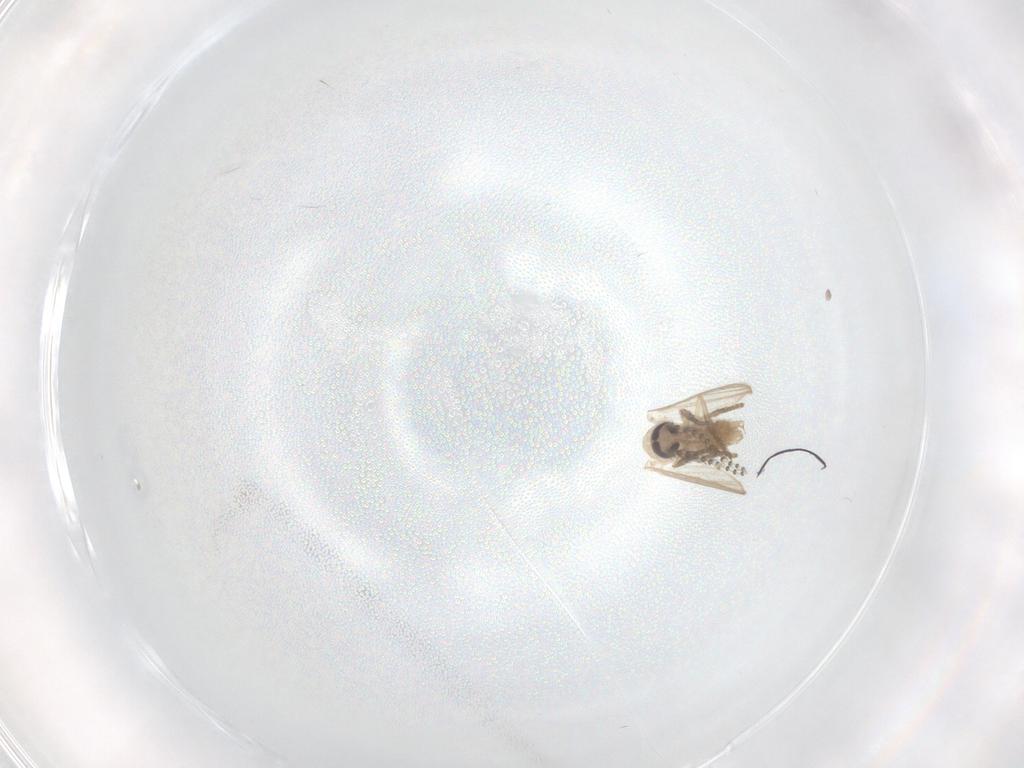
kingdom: Animalia
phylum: Arthropoda
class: Insecta
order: Diptera
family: Psychodidae
